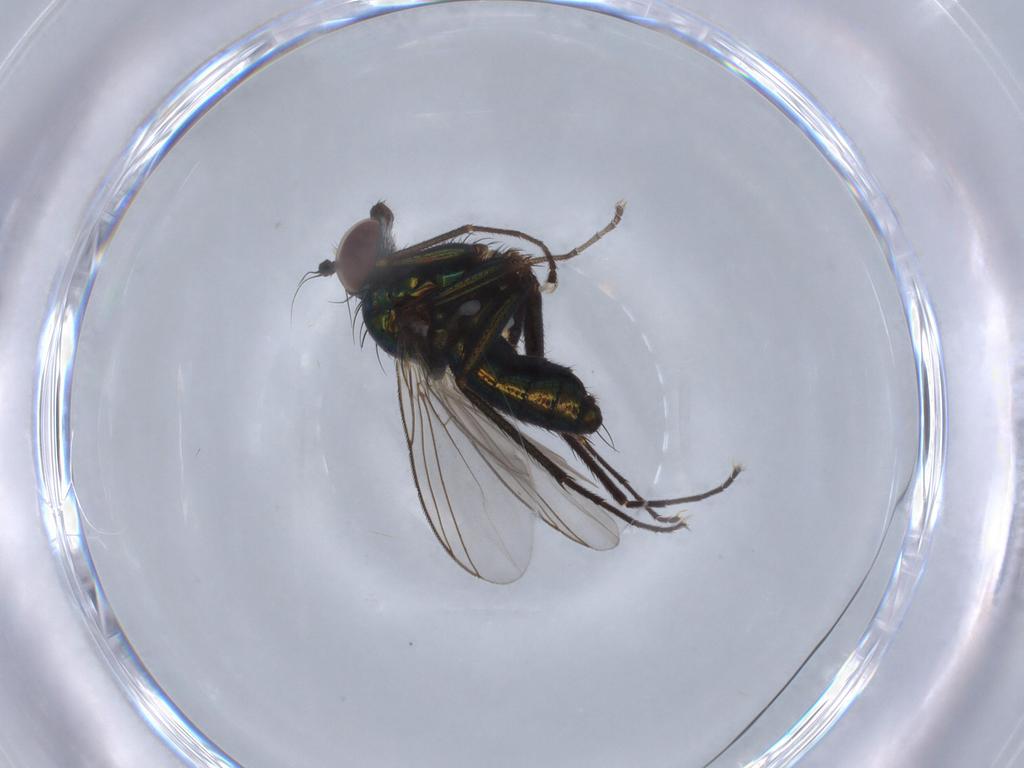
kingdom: Animalia
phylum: Arthropoda
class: Insecta
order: Diptera
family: Dolichopodidae
